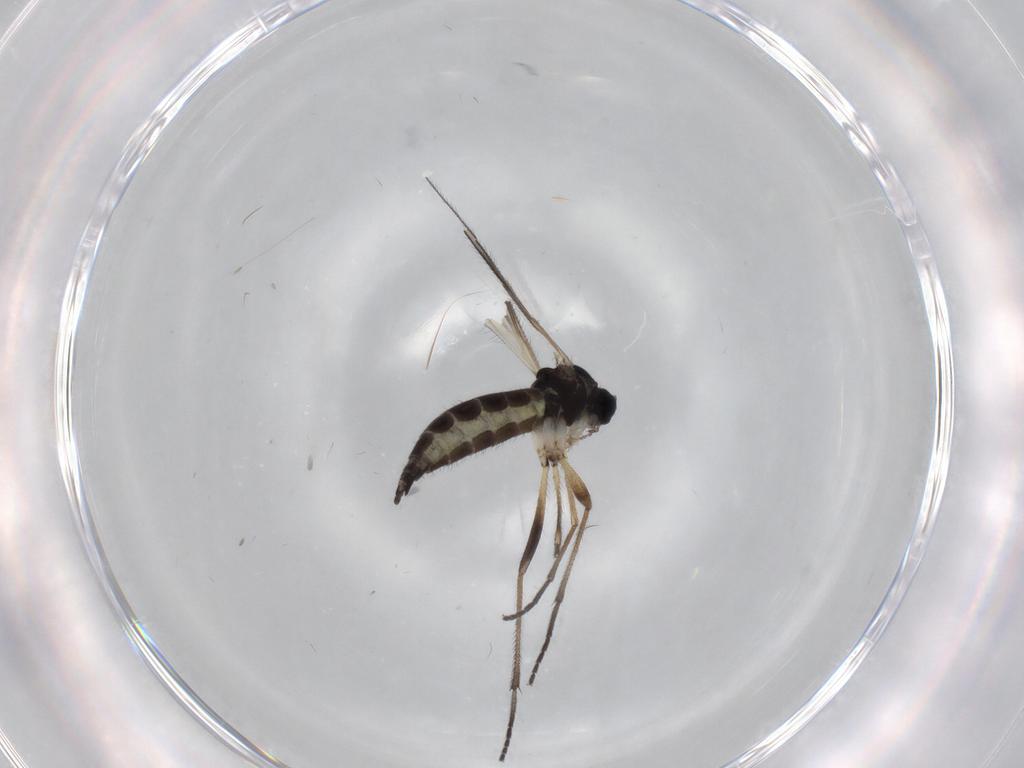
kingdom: Animalia
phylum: Arthropoda
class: Insecta
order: Diptera
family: Sciaridae
